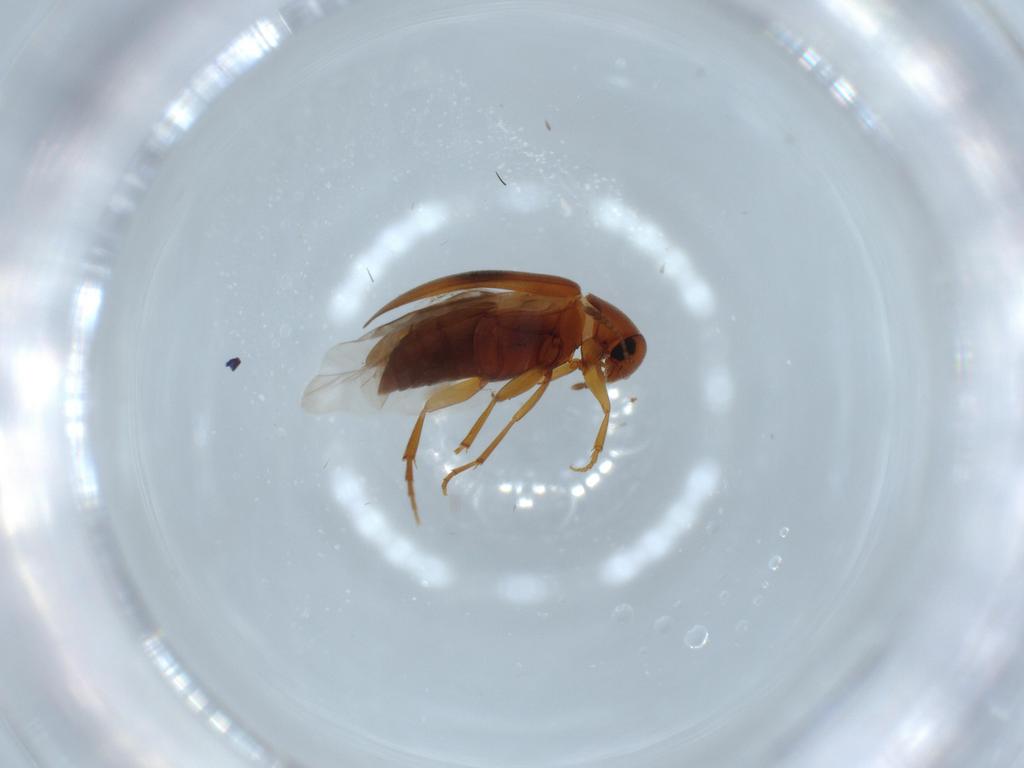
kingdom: Animalia
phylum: Arthropoda
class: Insecta
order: Coleoptera
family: Scraptiidae
